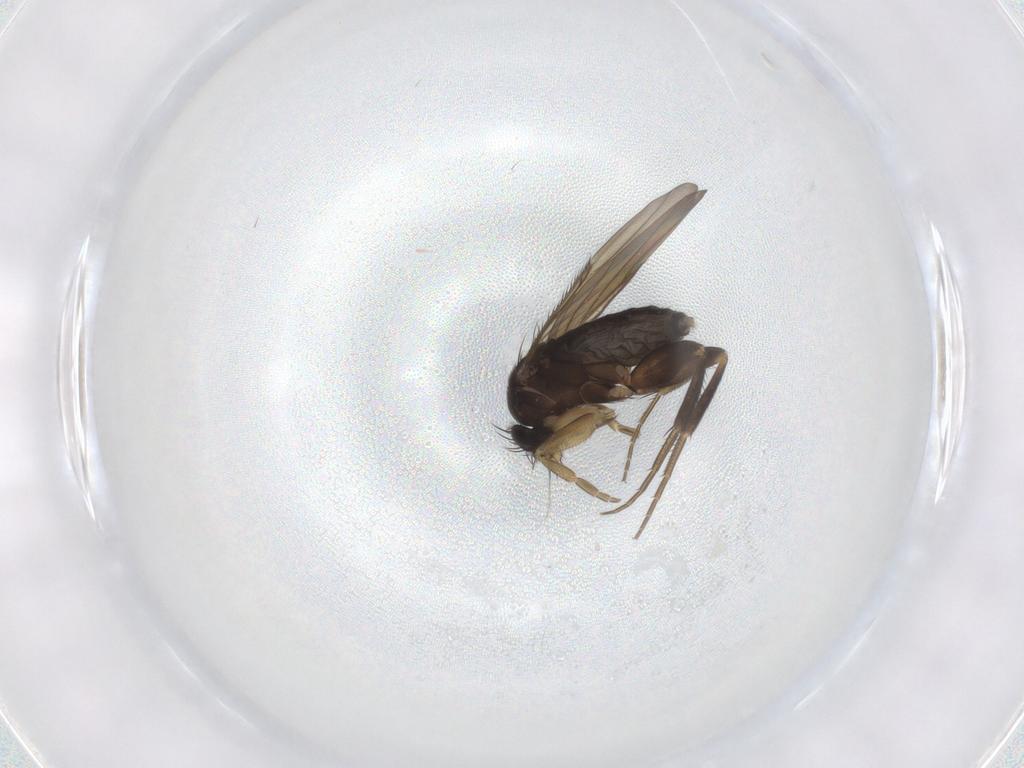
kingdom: Animalia
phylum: Arthropoda
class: Insecta
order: Diptera
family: Phoridae
